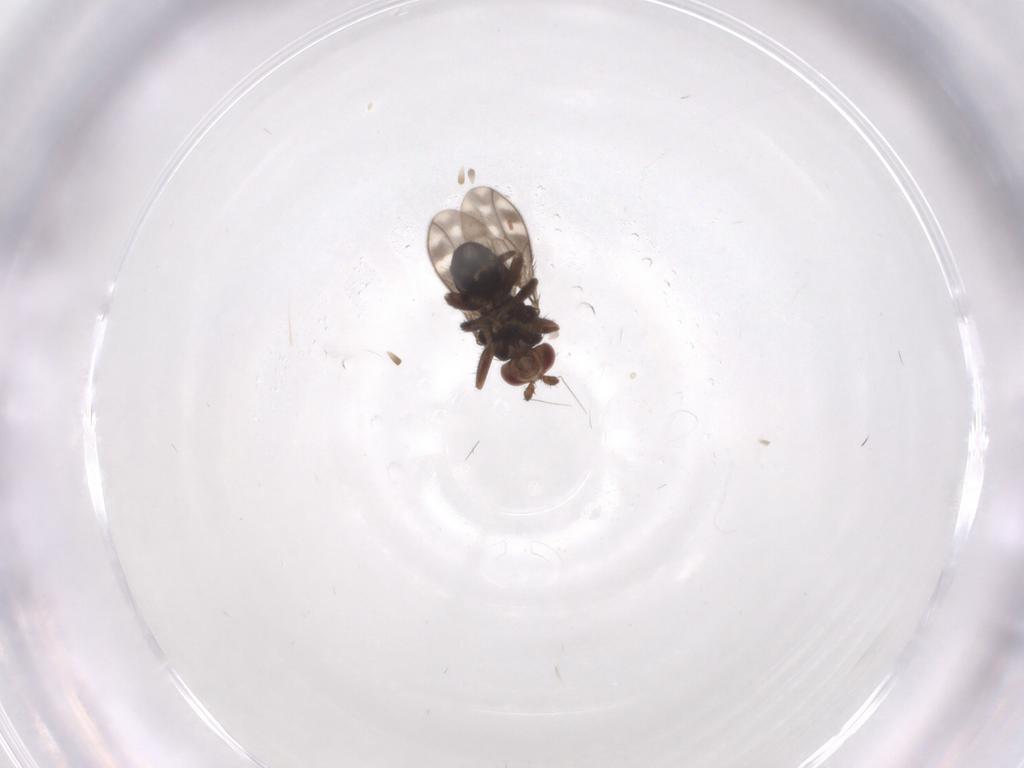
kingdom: Animalia
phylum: Arthropoda
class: Insecta
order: Diptera
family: Sphaeroceridae
